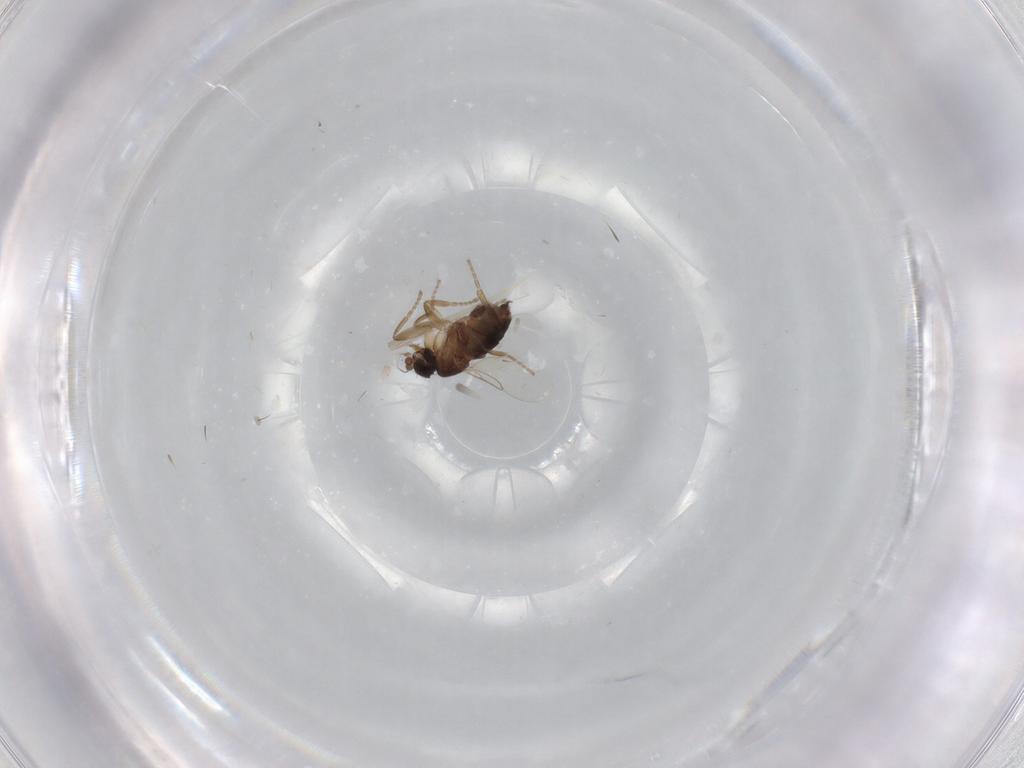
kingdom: Animalia
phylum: Arthropoda
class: Insecta
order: Diptera
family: Phoridae
